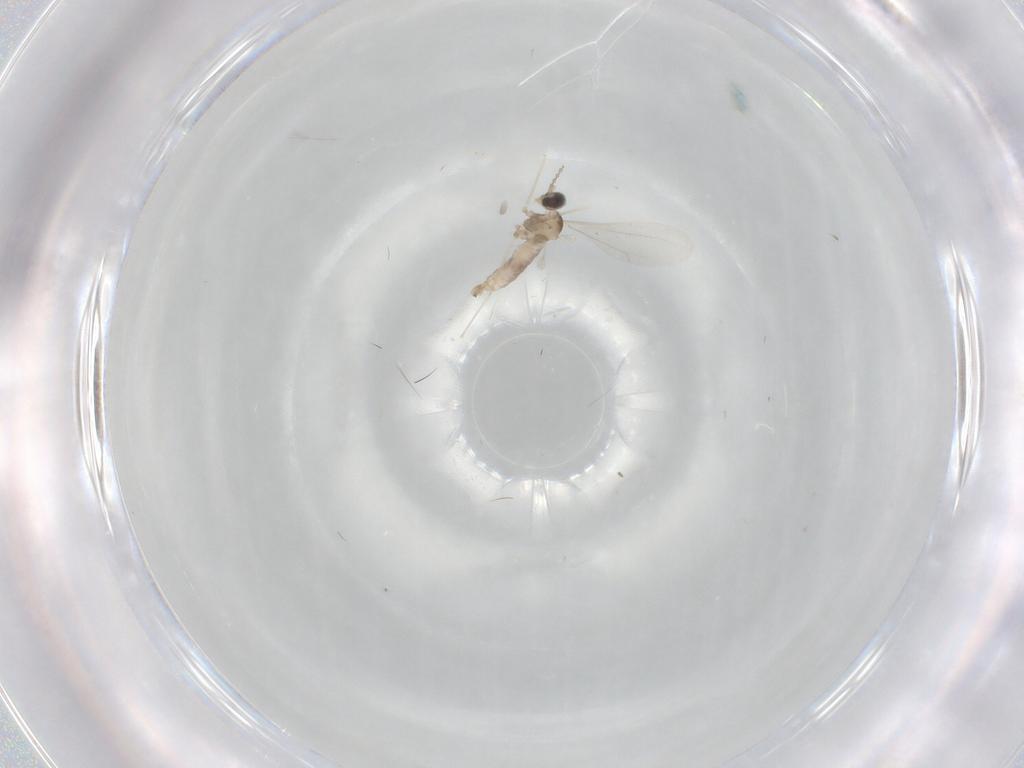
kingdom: Animalia
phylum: Arthropoda
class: Insecta
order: Diptera
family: Cecidomyiidae
